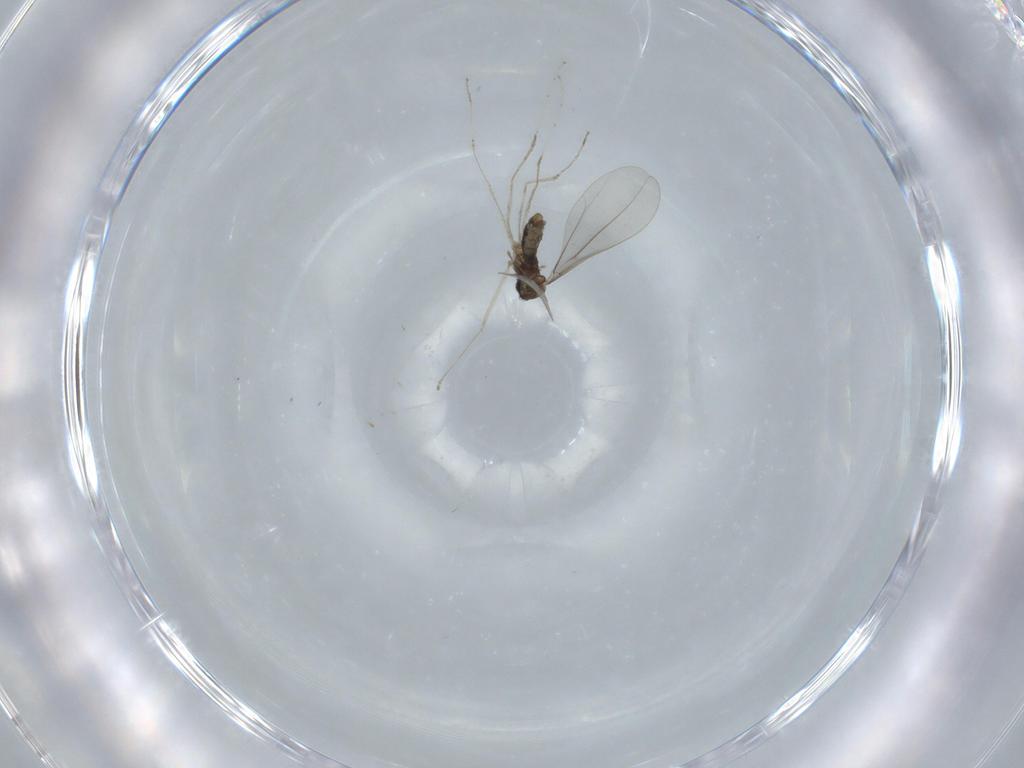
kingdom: Animalia
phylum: Arthropoda
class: Insecta
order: Diptera
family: Cecidomyiidae
